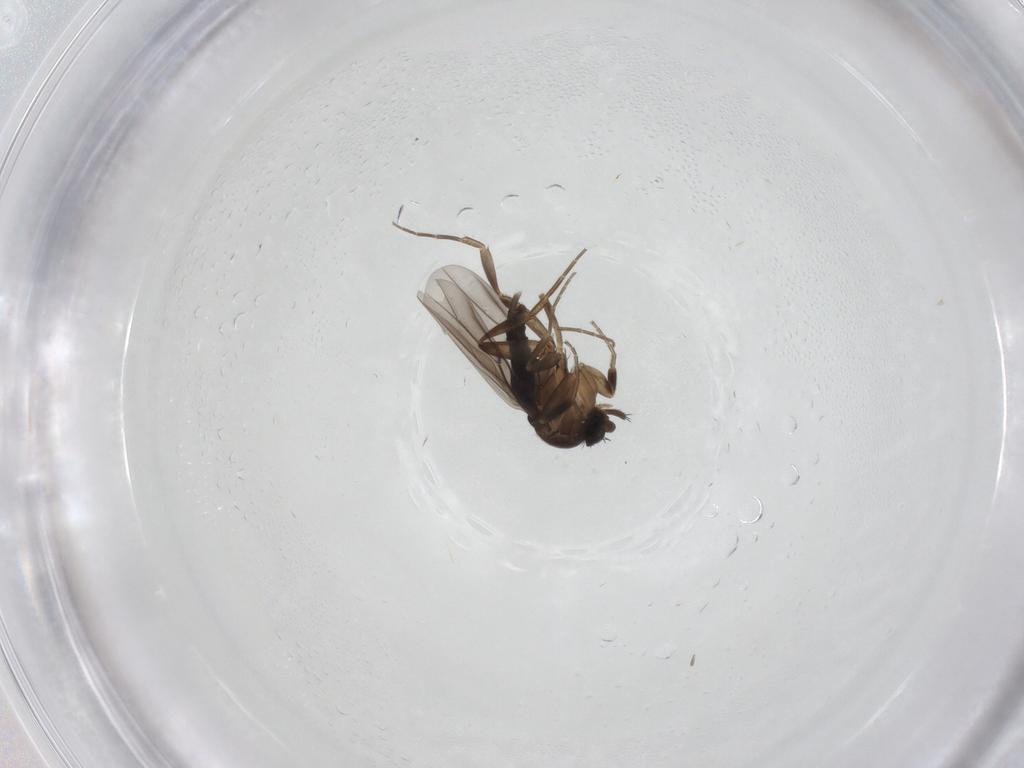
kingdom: Animalia
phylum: Arthropoda
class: Insecta
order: Diptera
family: Phoridae
